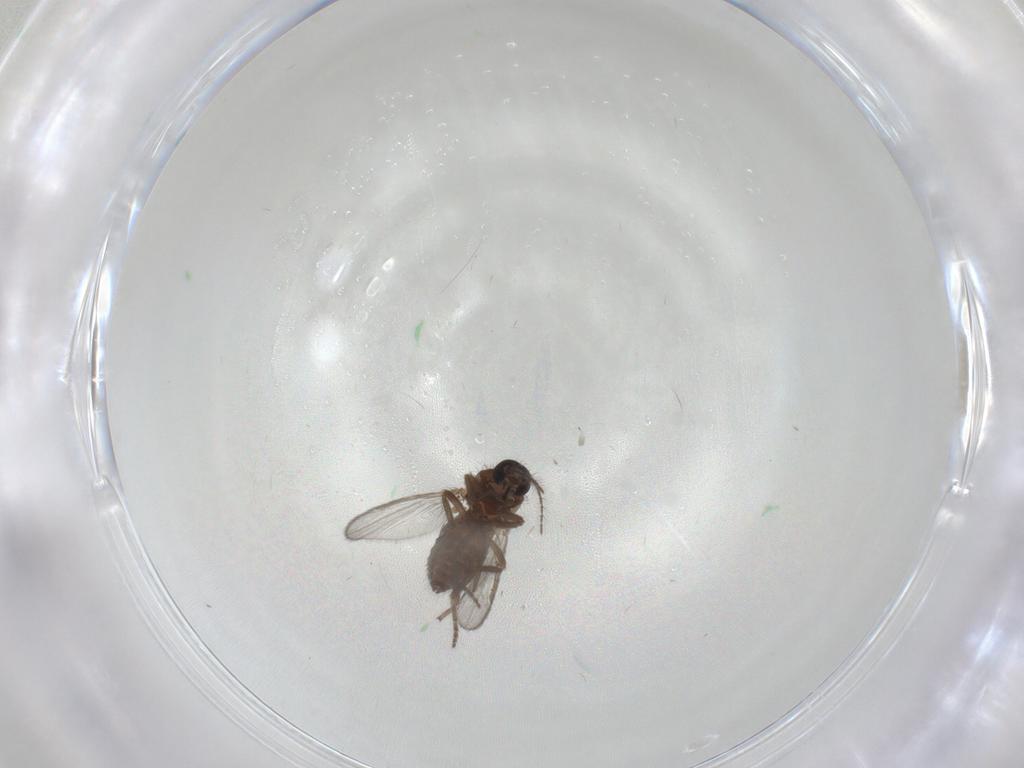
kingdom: Animalia
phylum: Arthropoda
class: Insecta
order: Diptera
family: Ceratopogonidae
